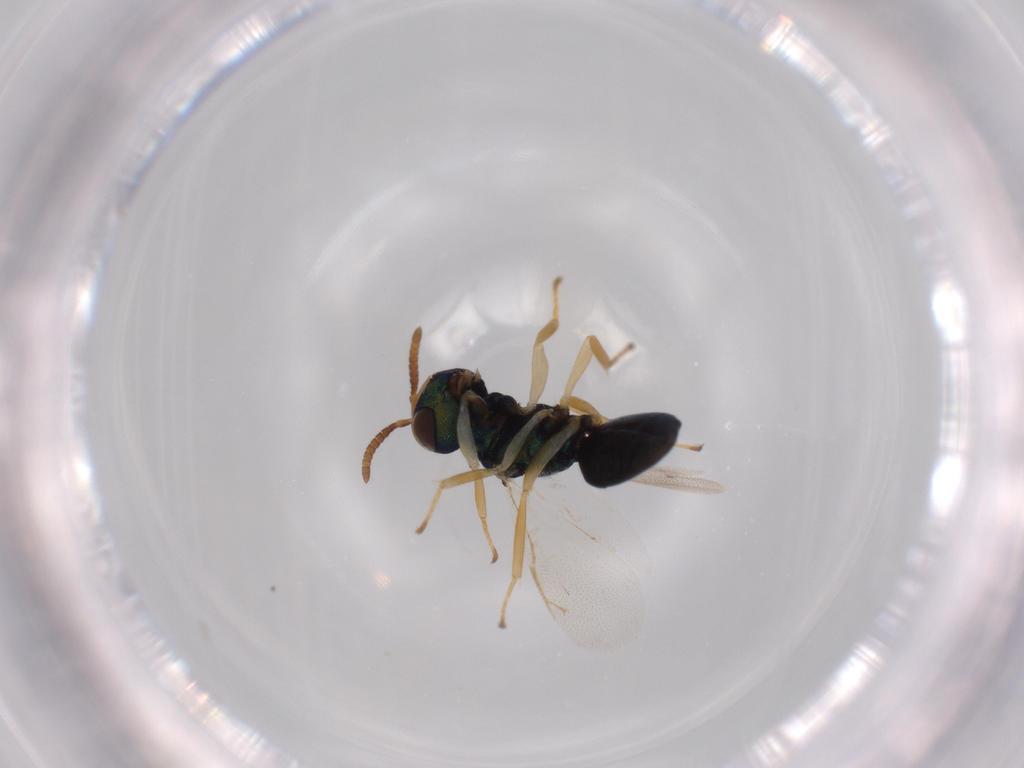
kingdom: Animalia
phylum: Arthropoda
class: Insecta
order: Hymenoptera
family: Pteromalidae
